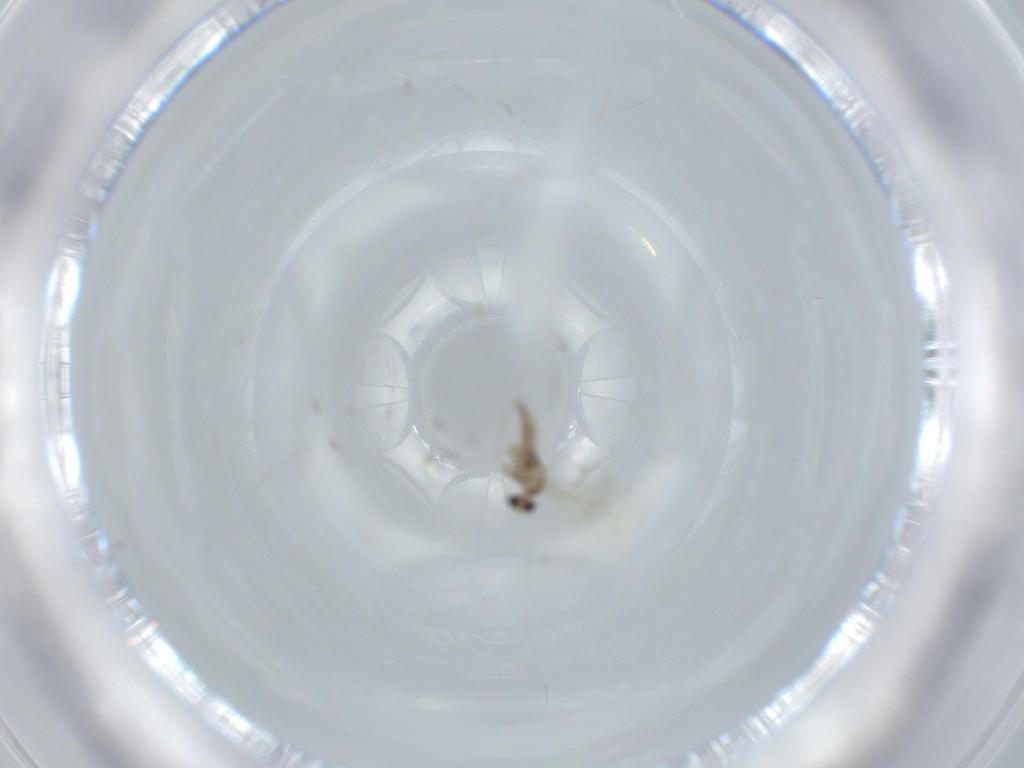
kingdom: Animalia
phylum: Arthropoda
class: Insecta
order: Diptera
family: Cecidomyiidae
